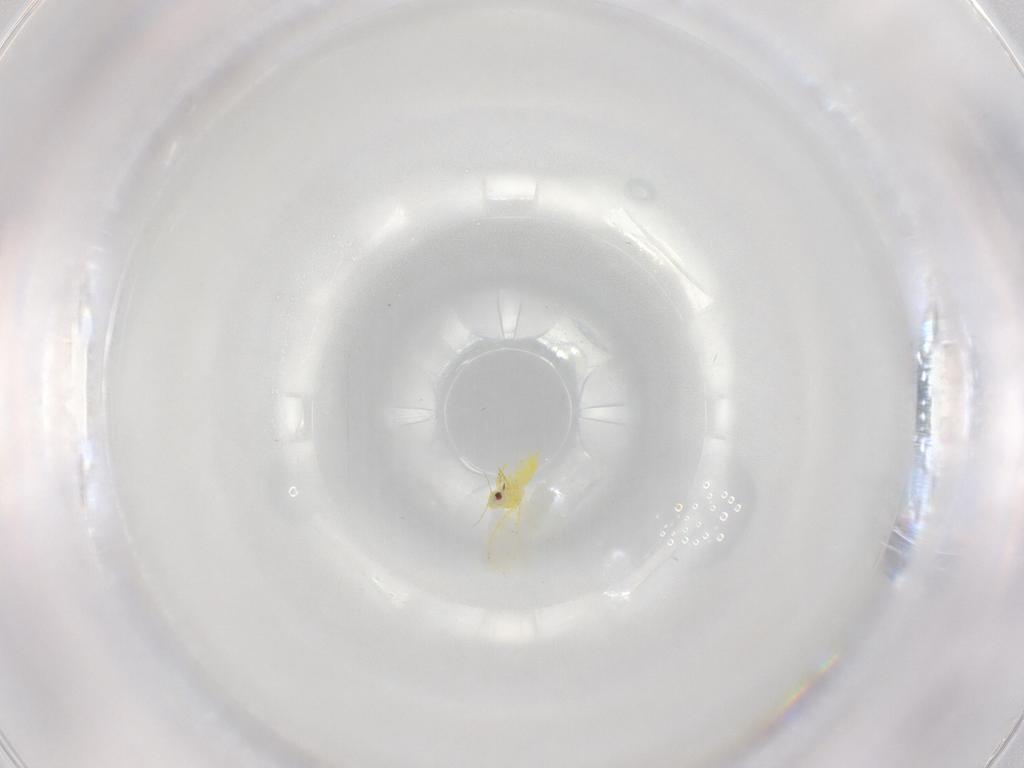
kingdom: Animalia
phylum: Arthropoda
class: Insecta
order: Hemiptera
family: Aleyrodidae
